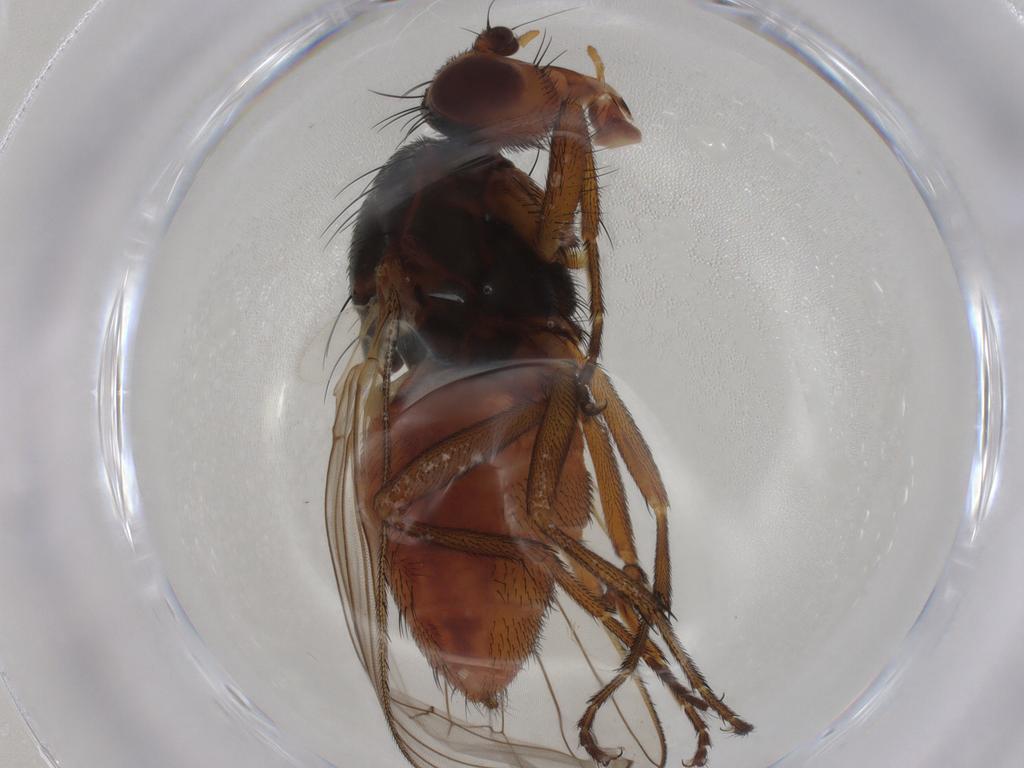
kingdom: Animalia
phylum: Arthropoda
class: Insecta
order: Diptera
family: Heleomyzidae
